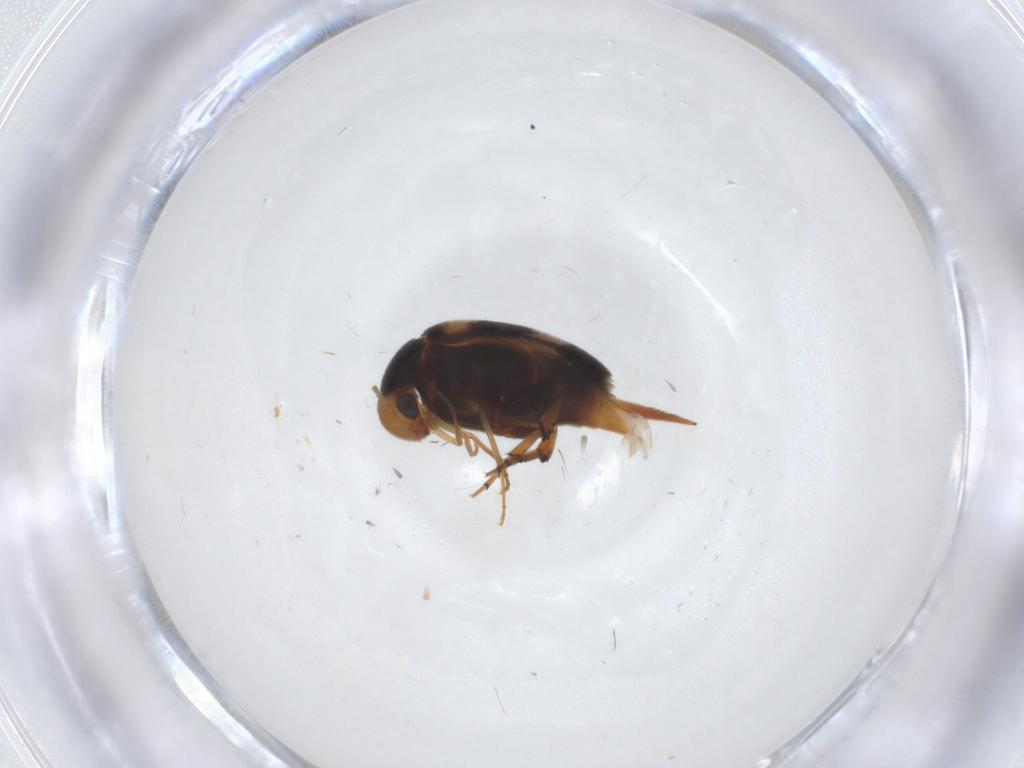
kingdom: Animalia
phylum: Arthropoda
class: Insecta
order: Coleoptera
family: Mordellidae
